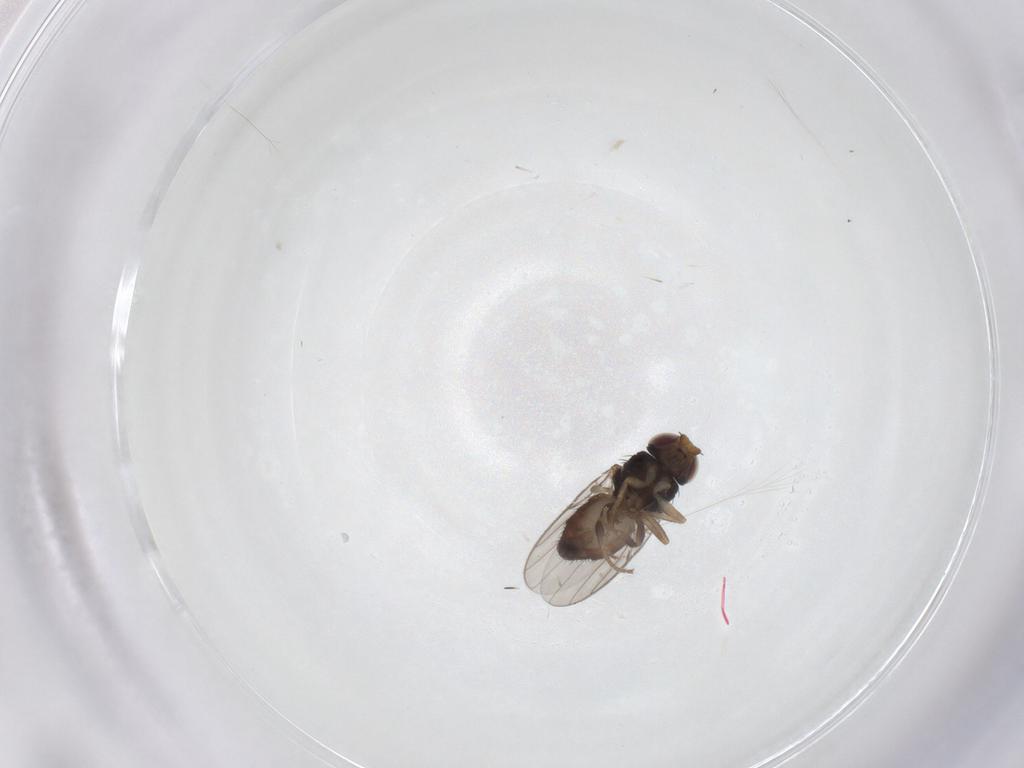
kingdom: Animalia
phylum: Arthropoda
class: Insecta
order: Diptera
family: Chloropidae
